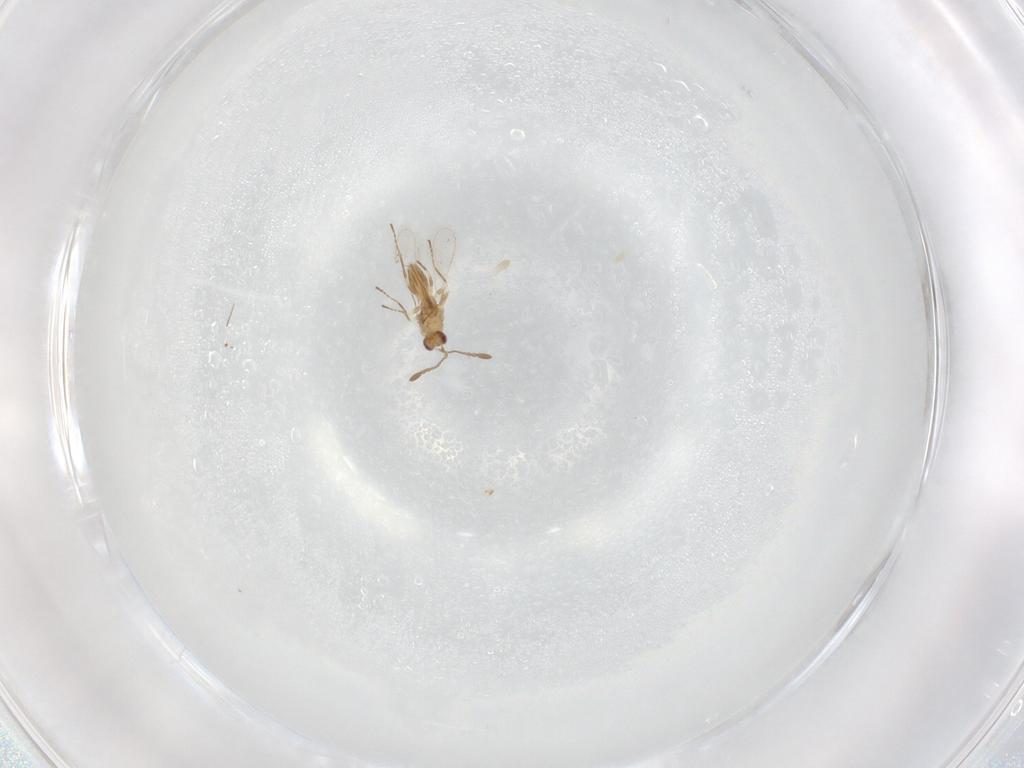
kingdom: Animalia
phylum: Arthropoda
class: Insecta
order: Hymenoptera
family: Mymaridae
